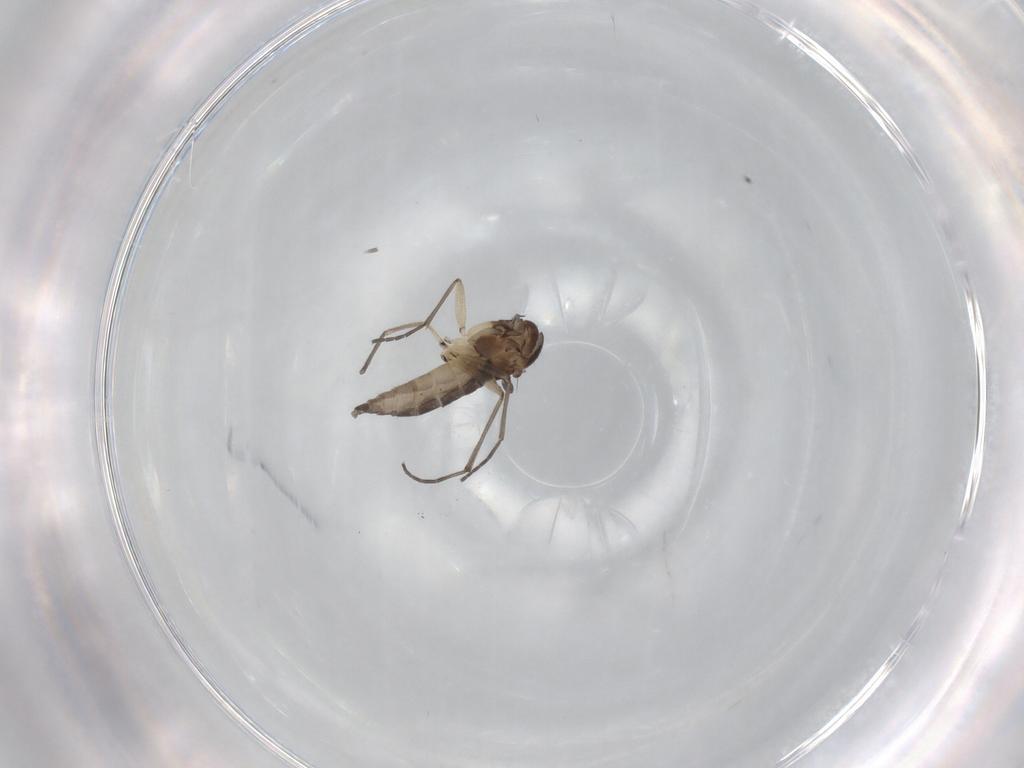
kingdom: Animalia
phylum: Arthropoda
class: Insecta
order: Diptera
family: Sciaridae
